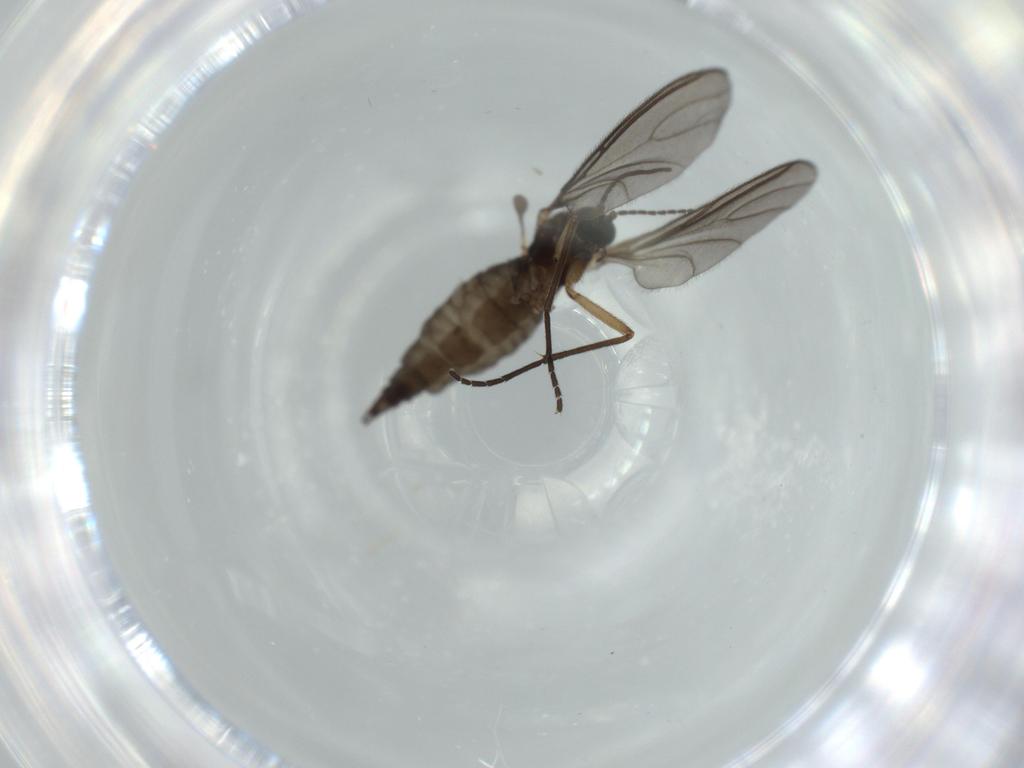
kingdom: Animalia
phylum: Arthropoda
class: Insecta
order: Diptera
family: Sciaridae
